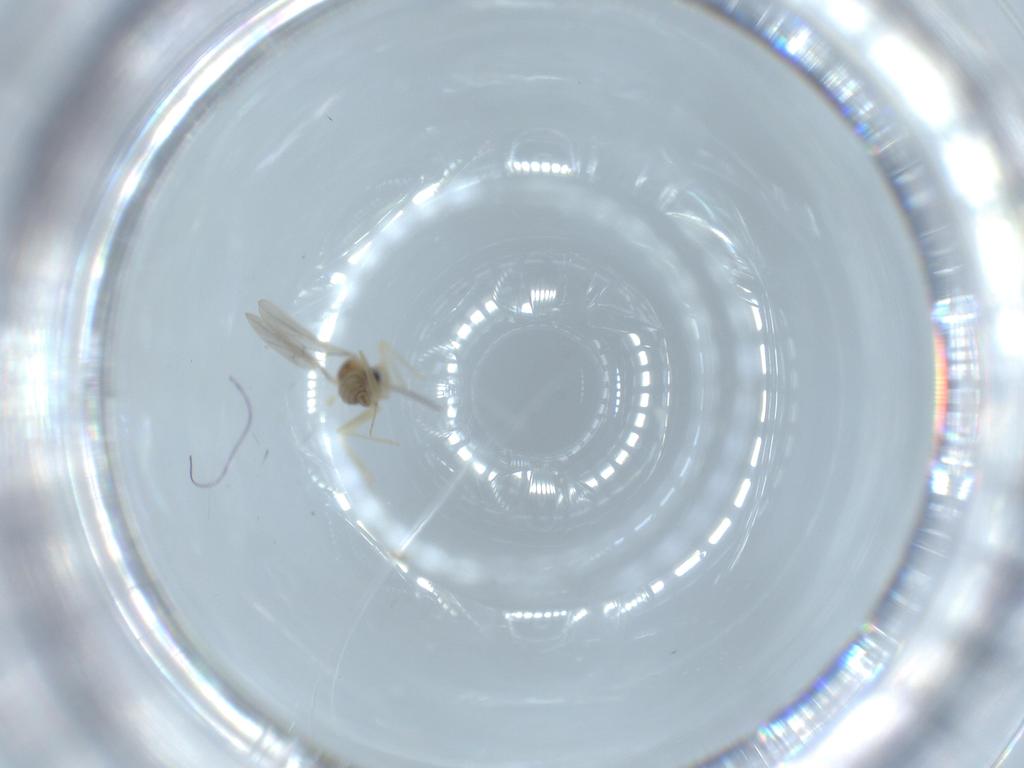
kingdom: Animalia
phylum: Arthropoda
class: Insecta
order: Diptera
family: Cecidomyiidae
